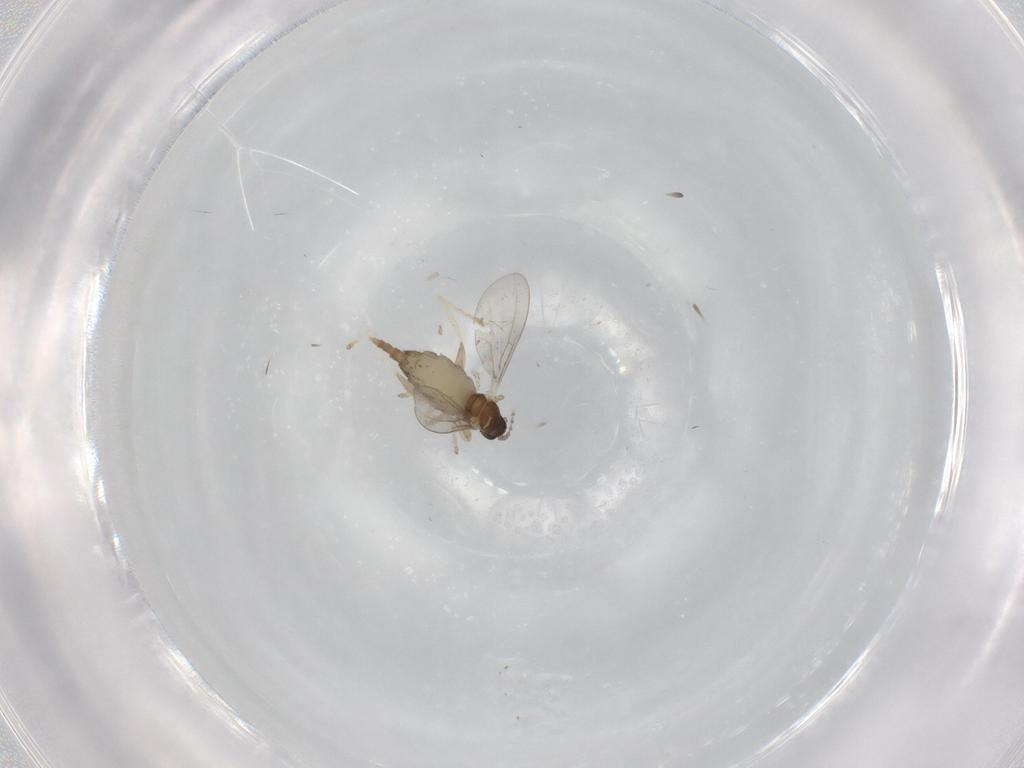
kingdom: Animalia
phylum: Arthropoda
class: Insecta
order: Diptera
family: Cecidomyiidae
